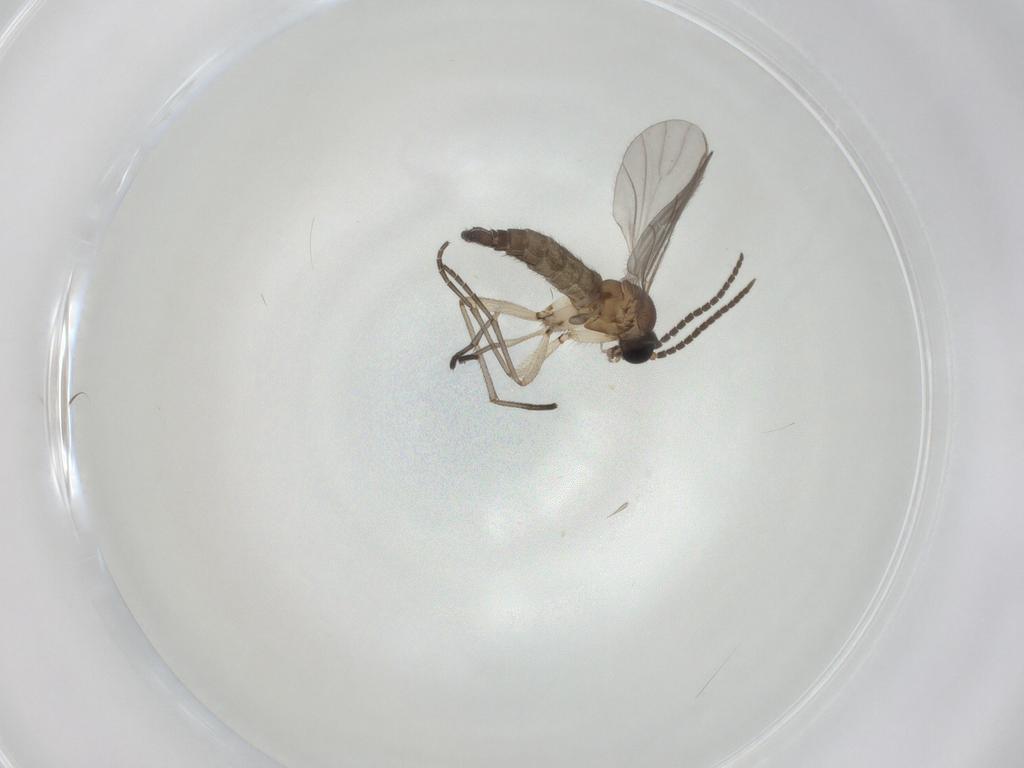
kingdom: Animalia
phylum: Arthropoda
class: Insecta
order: Diptera
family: Sciaridae
